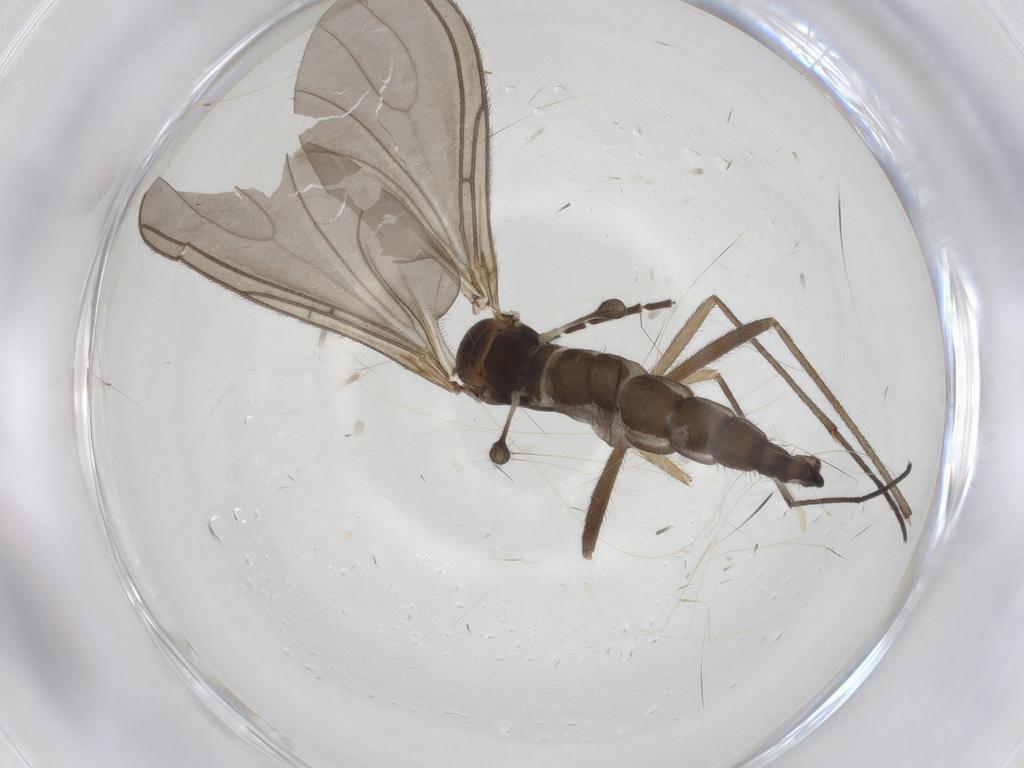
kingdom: Animalia
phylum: Arthropoda
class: Insecta
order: Diptera
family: Sciaridae
